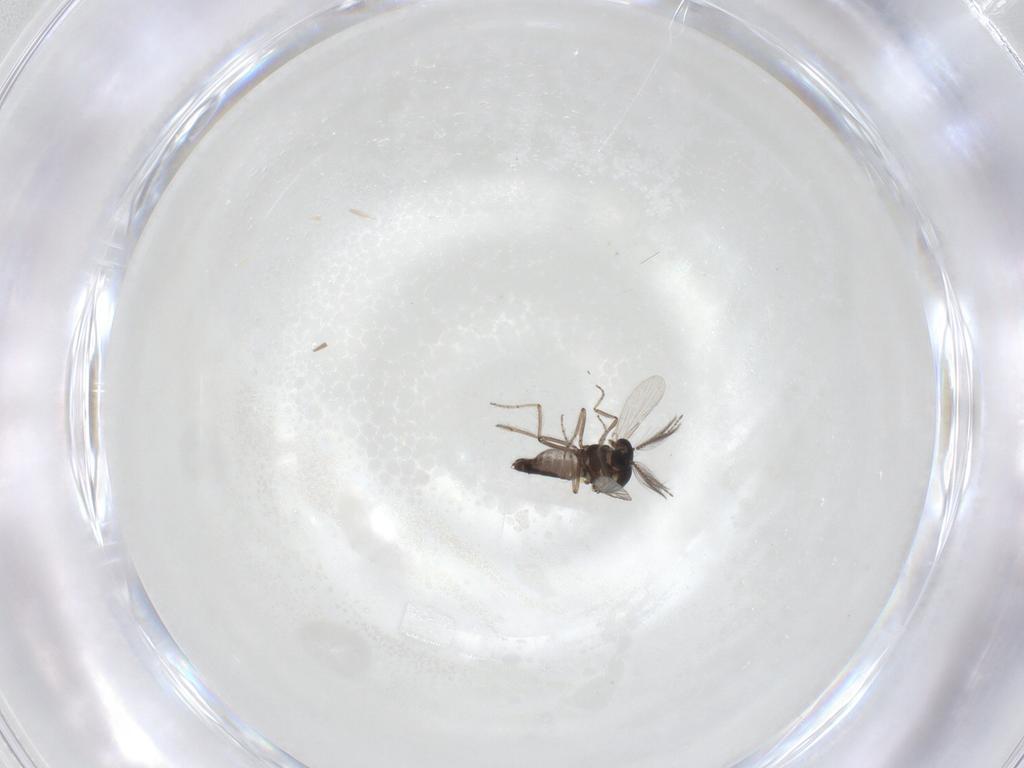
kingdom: Animalia
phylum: Arthropoda
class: Insecta
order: Diptera
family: Ceratopogonidae
